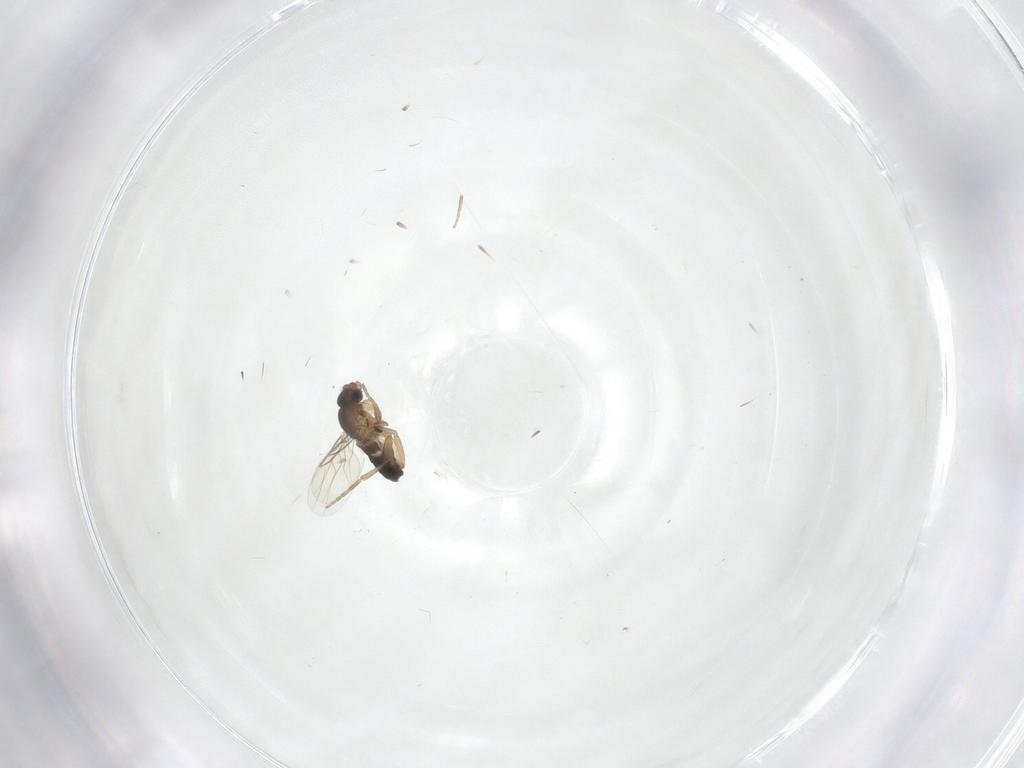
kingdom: Animalia
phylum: Arthropoda
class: Insecta
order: Diptera
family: Phoridae
